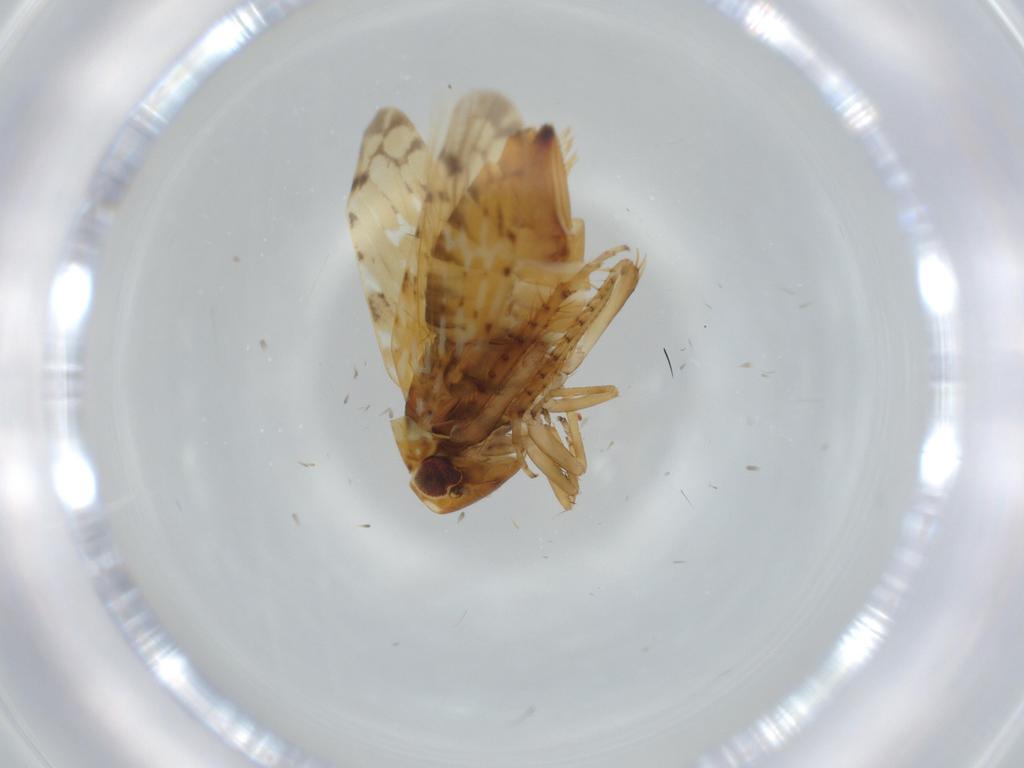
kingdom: Animalia
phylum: Arthropoda
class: Insecta
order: Hemiptera
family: Cicadellidae
